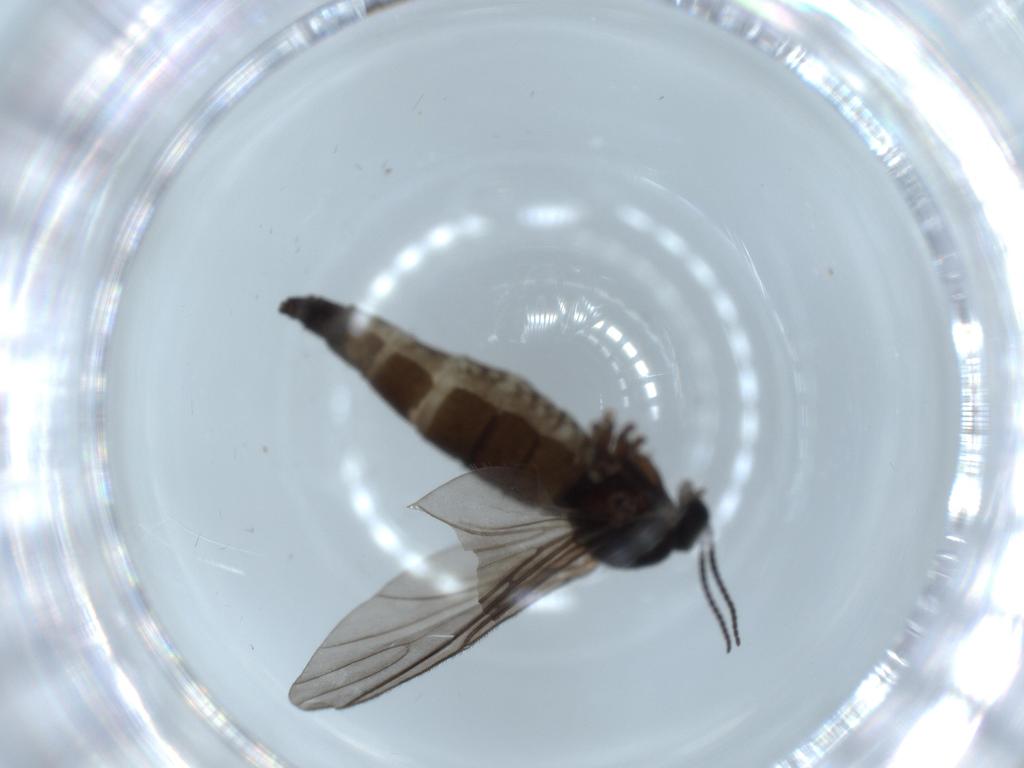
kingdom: Animalia
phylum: Arthropoda
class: Insecta
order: Diptera
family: Sciaridae
